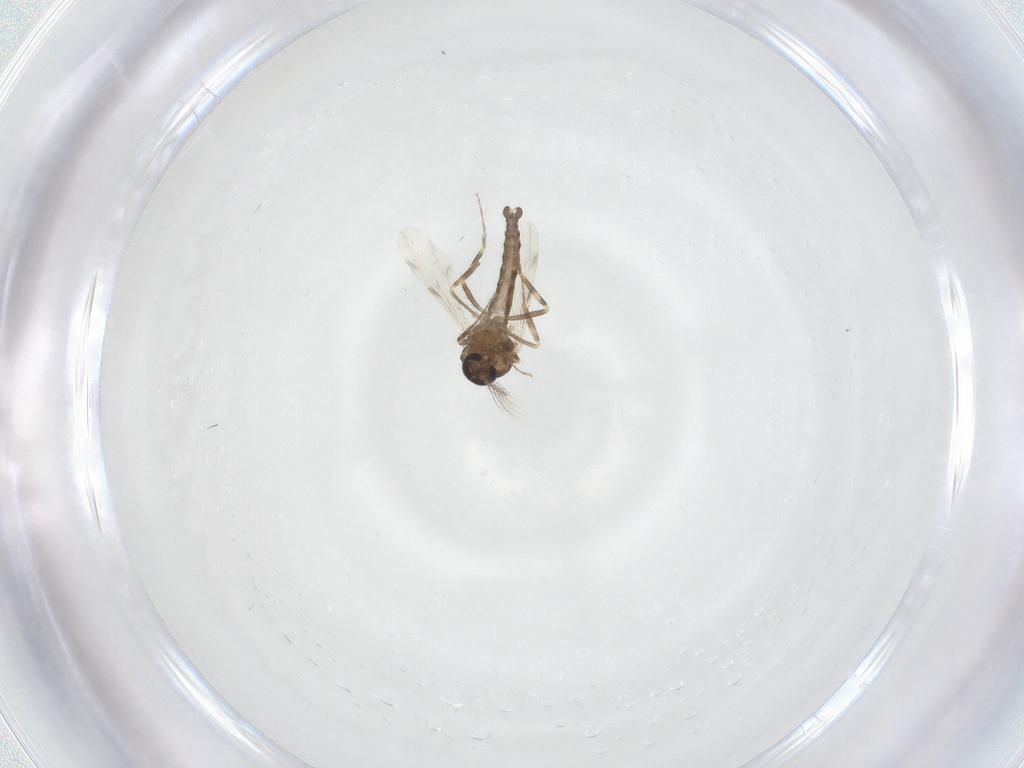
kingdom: Animalia
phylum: Arthropoda
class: Insecta
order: Diptera
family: Ceratopogonidae
